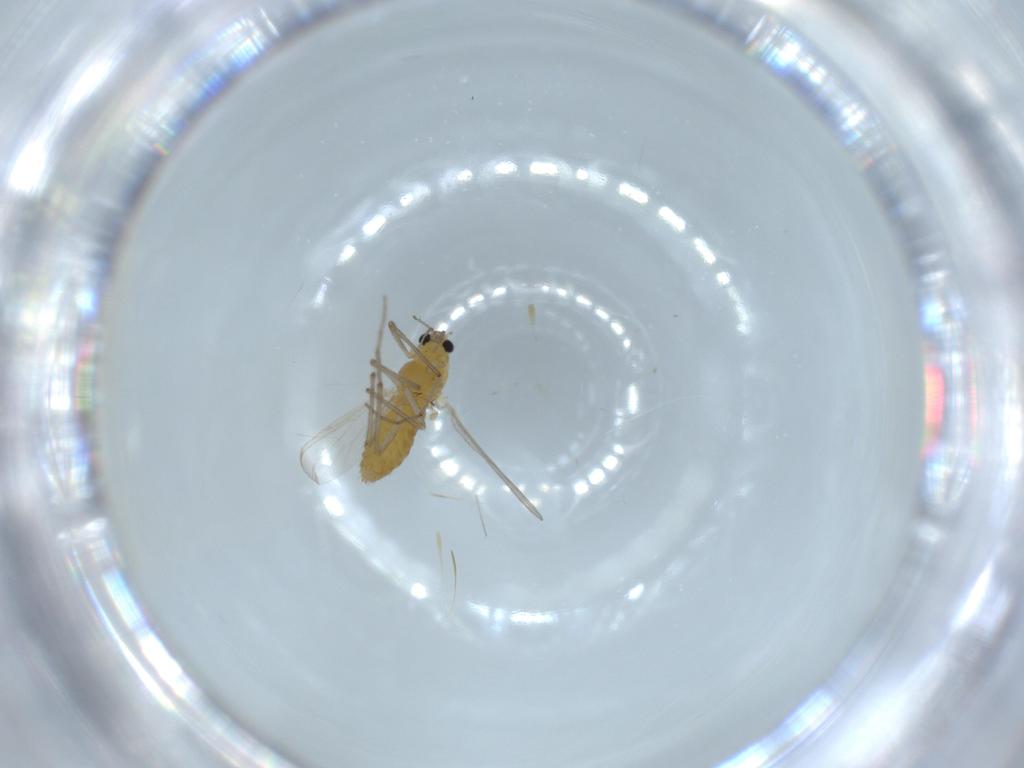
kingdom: Animalia
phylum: Arthropoda
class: Insecta
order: Diptera
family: Chironomidae
